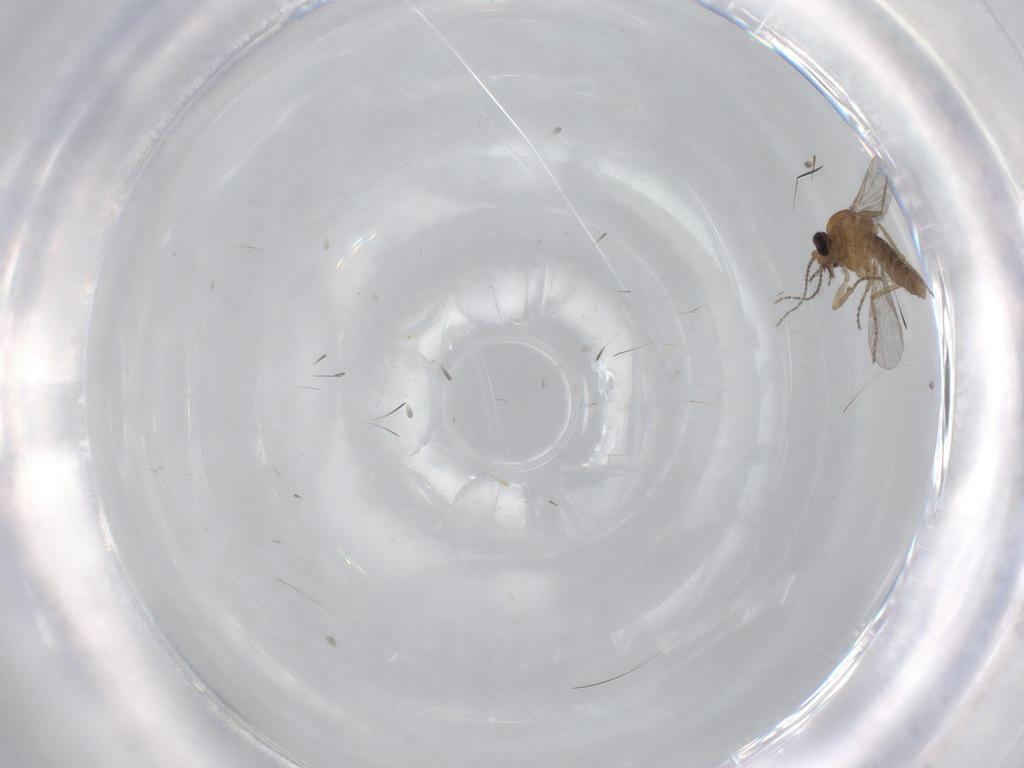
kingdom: Animalia
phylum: Arthropoda
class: Insecta
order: Diptera
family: Ceratopogonidae
